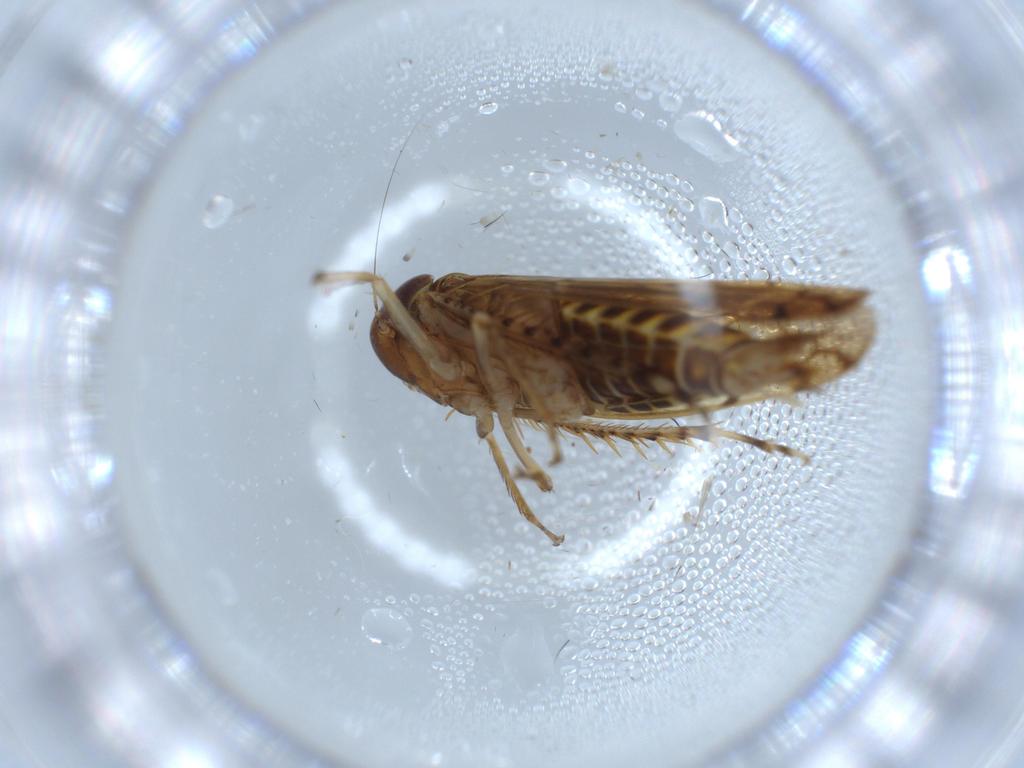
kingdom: Animalia
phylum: Arthropoda
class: Insecta
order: Hemiptera
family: Cicadellidae
